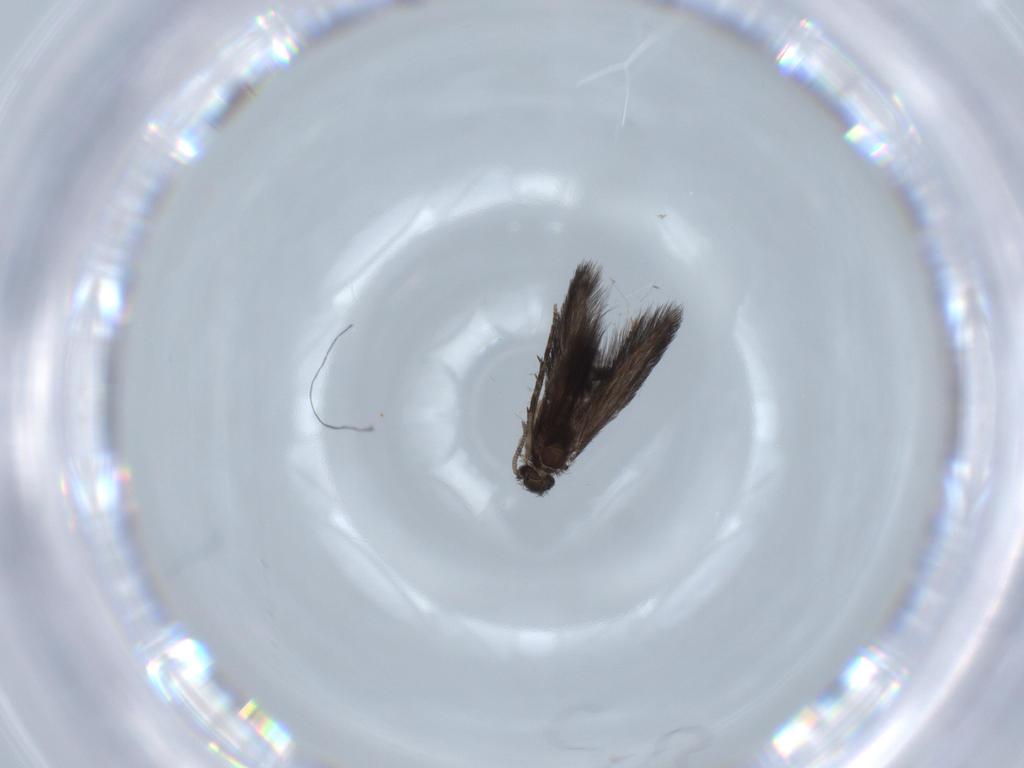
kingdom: Animalia
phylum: Arthropoda
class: Insecta
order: Trichoptera
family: Hydroptilidae
